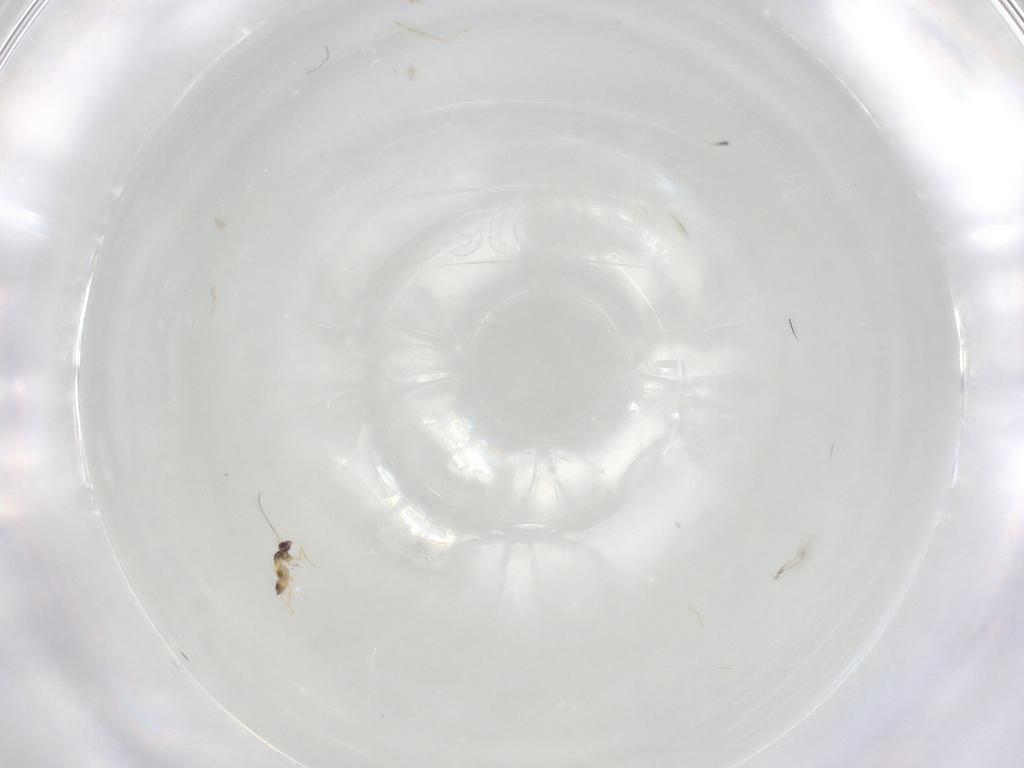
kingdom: Animalia
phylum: Arthropoda
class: Insecta
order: Hymenoptera
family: Mymaridae
